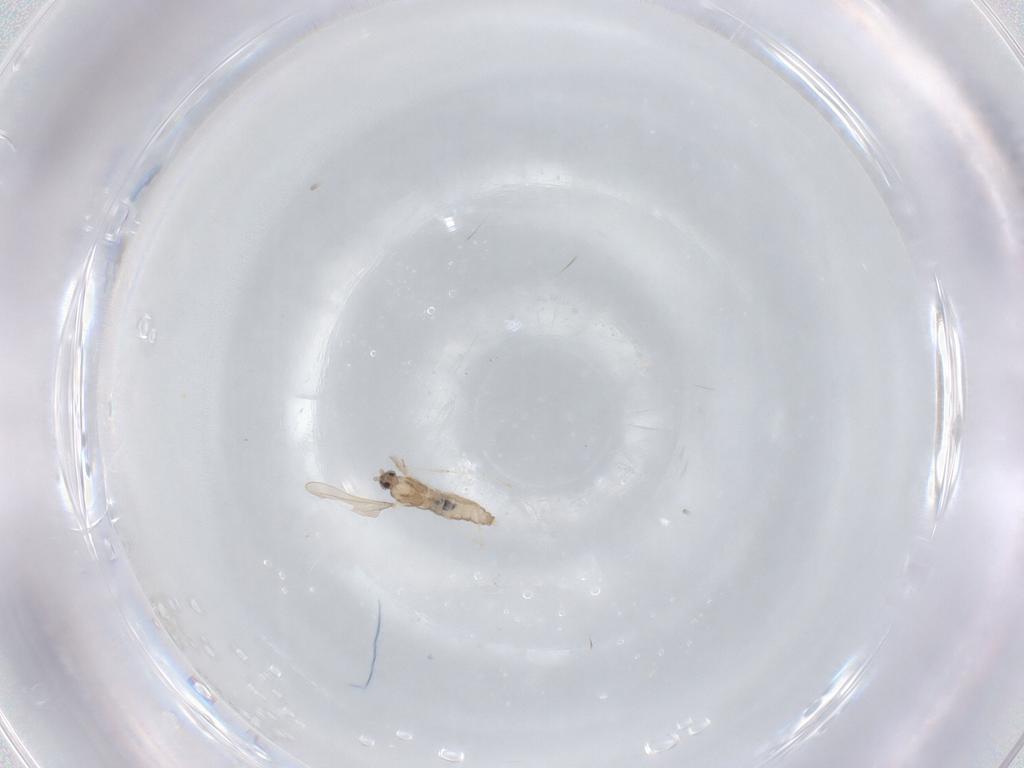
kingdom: Animalia
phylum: Arthropoda
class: Insecta
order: Diptera
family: Cecidomyiidae
